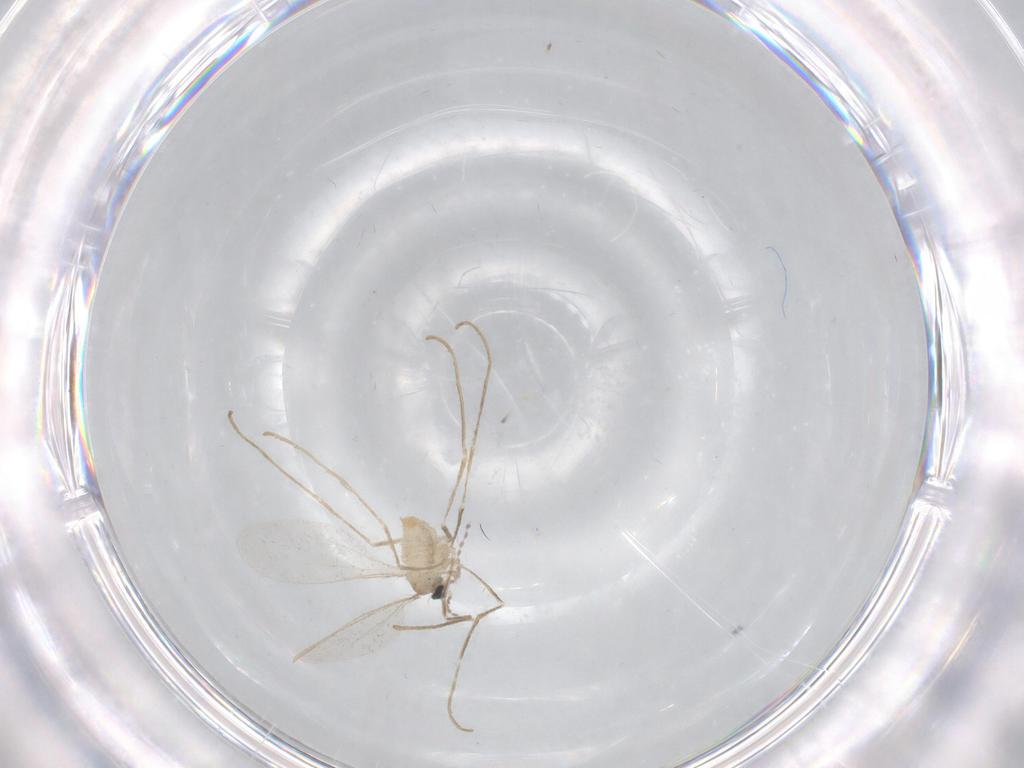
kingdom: Animalia
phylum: Arthropoda
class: Insecta
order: Diptera
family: Cecidomyiidae
